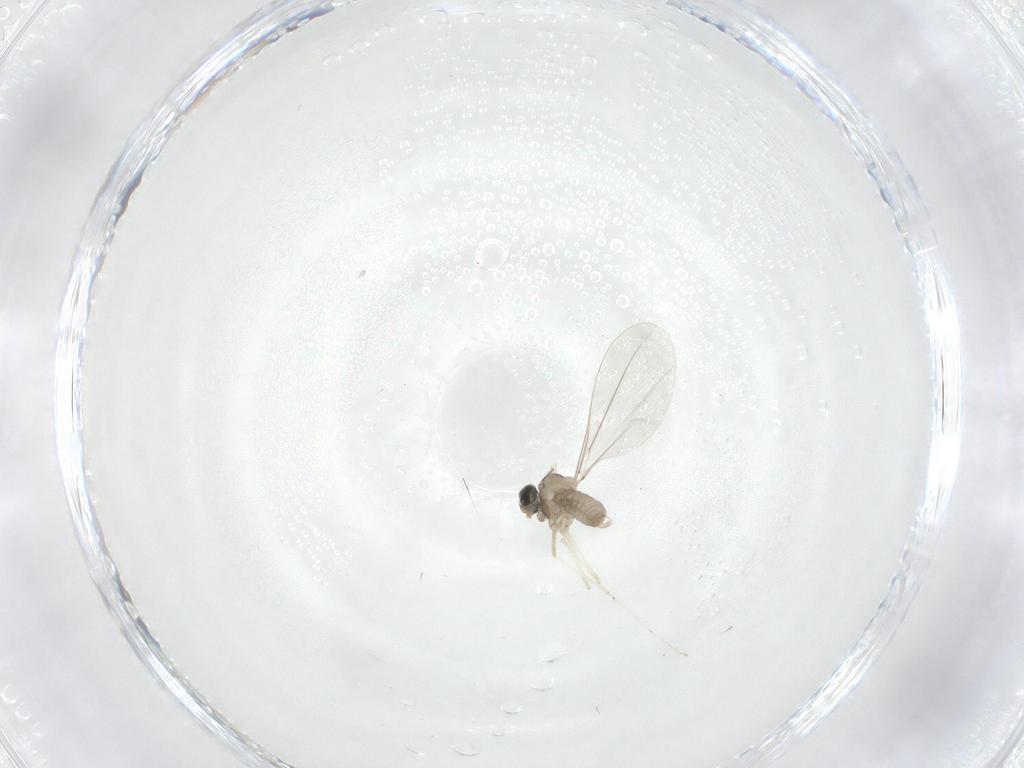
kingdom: Animalia
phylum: Arthropoda
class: Insecta
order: Diptera
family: Cecidomyiidae
